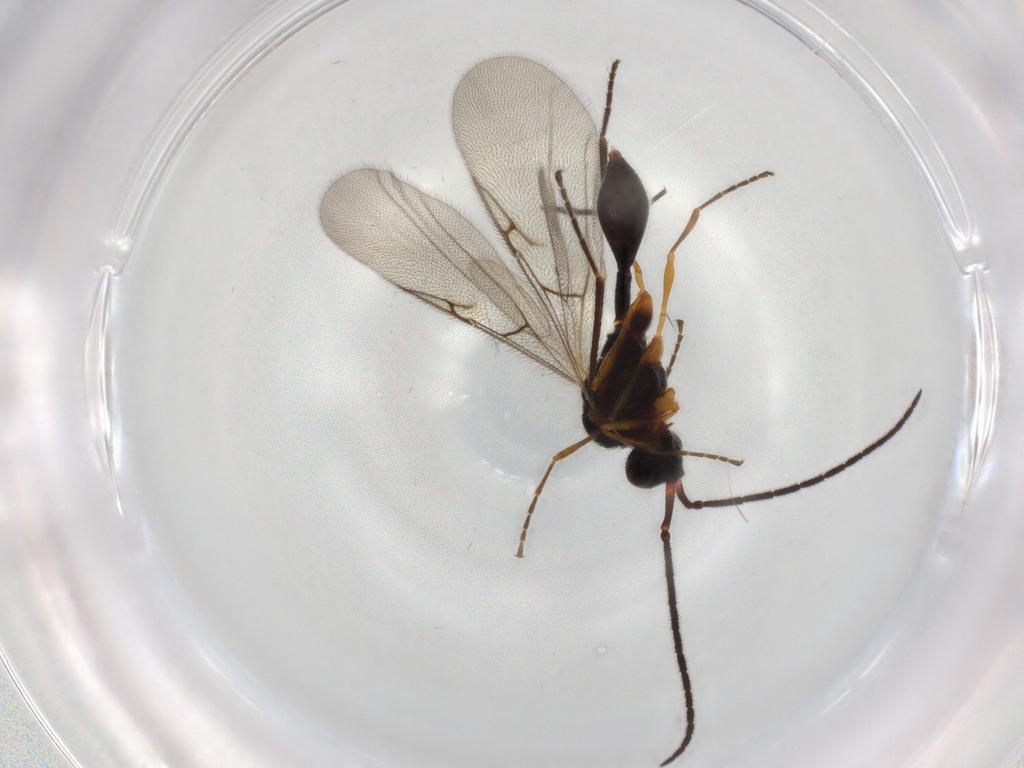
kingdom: Animalia
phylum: Arthropoda
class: Insecta
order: Hymenoptera
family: Diapriidae
